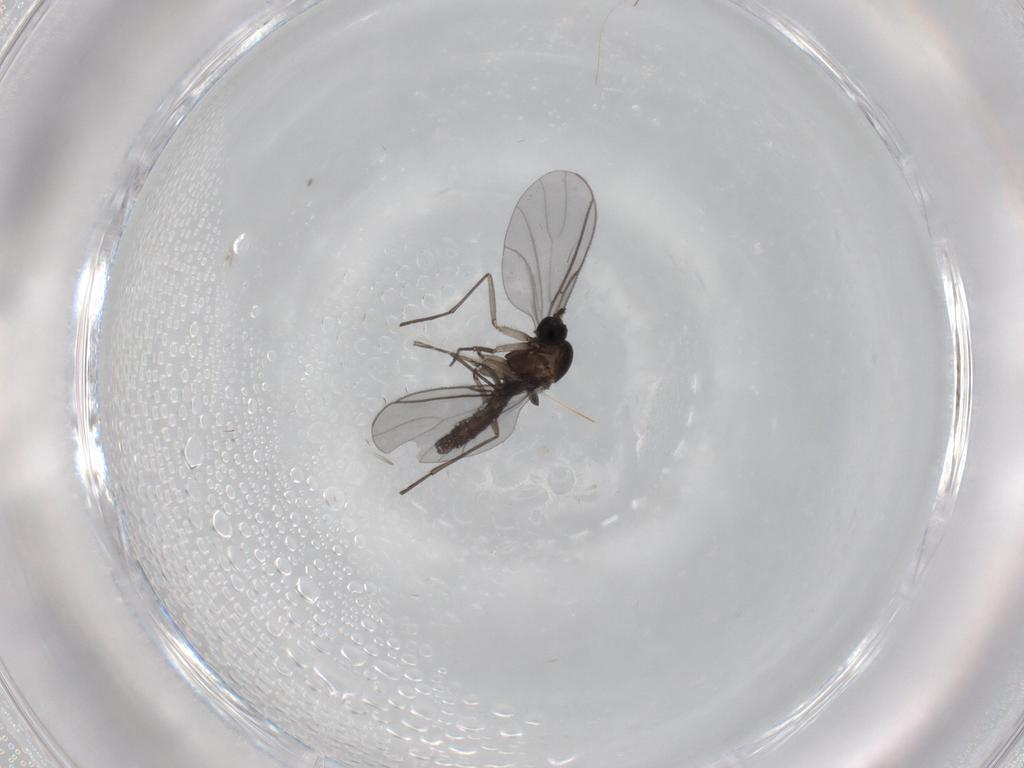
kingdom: Animalia
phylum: Arthropoda
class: Insecta
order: Diptera
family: Sciaridae
